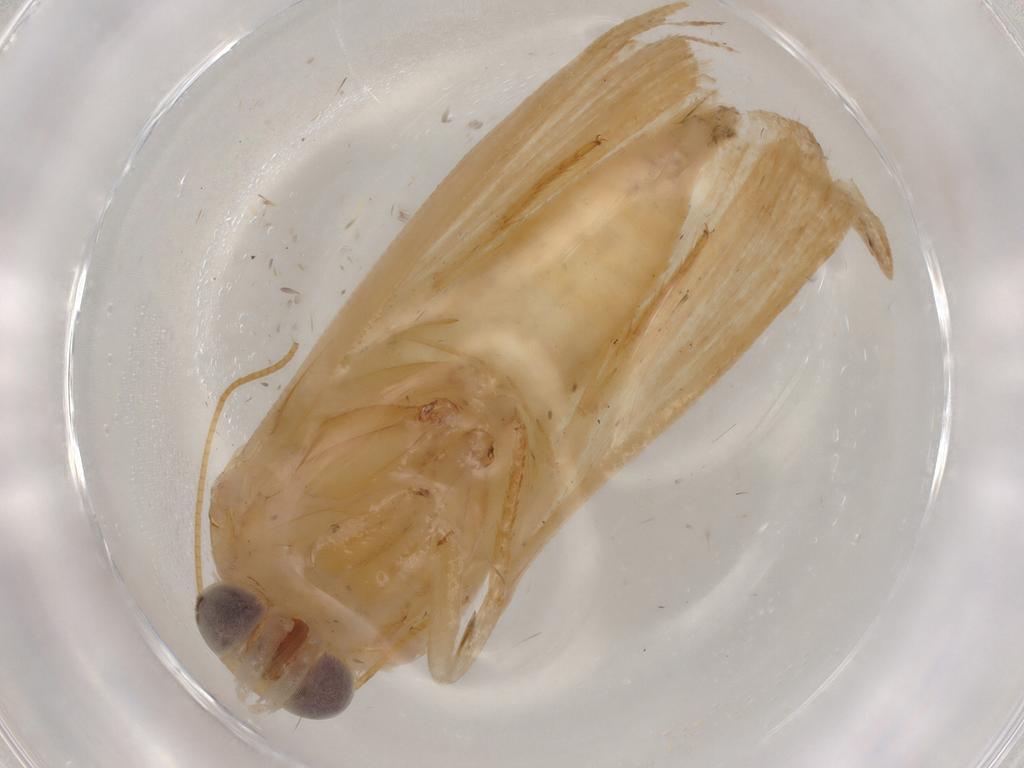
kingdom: Animalia
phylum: Arthropoda
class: Insecta
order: Lepidoptera
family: Noctuidae
